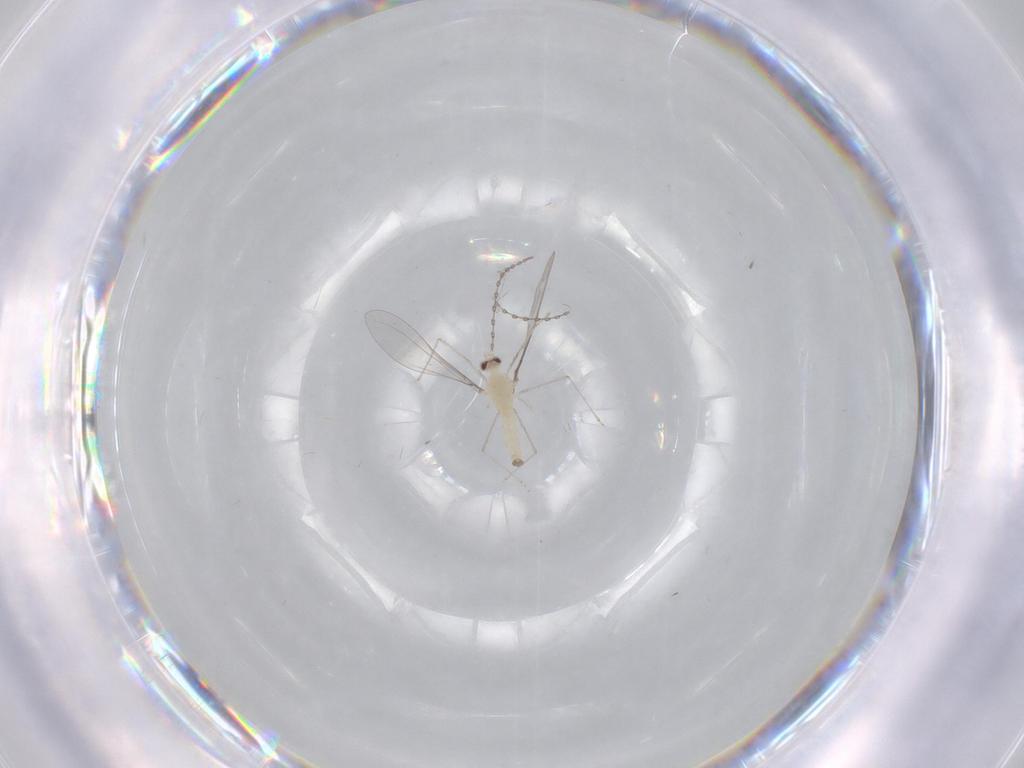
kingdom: Animalia
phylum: Arthropoda
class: Insecta
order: Diptera
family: Cecidomyiidae
